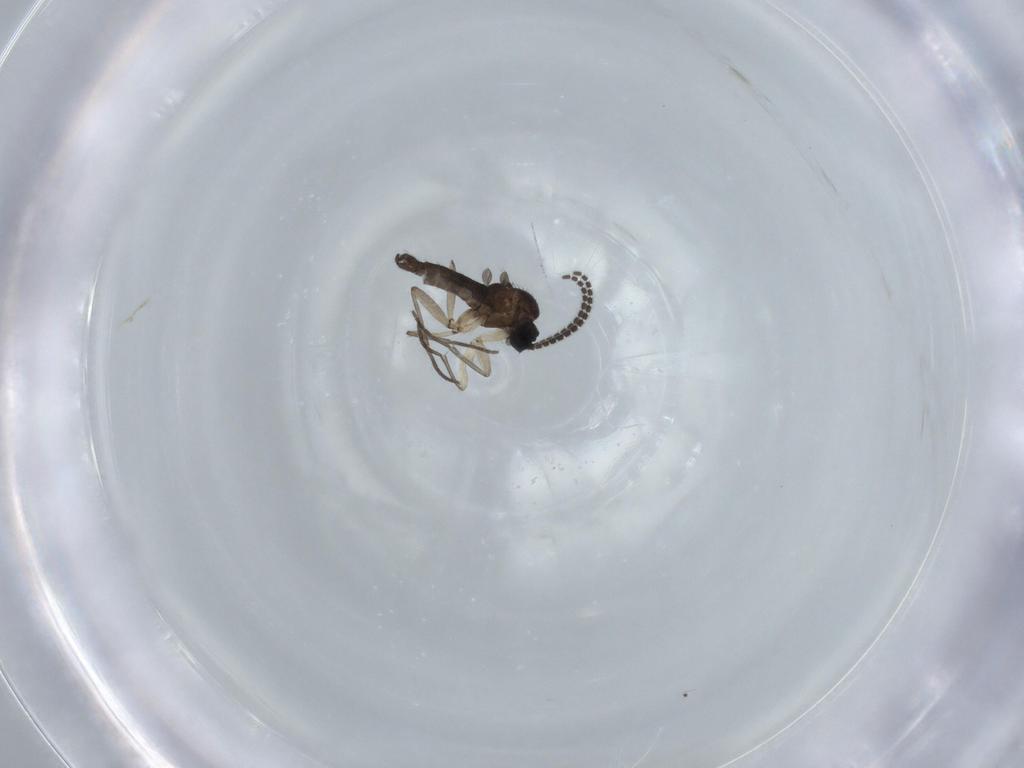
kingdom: Animalia
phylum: Arthropoda
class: Insecta
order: Diptera
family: Sciaridae
